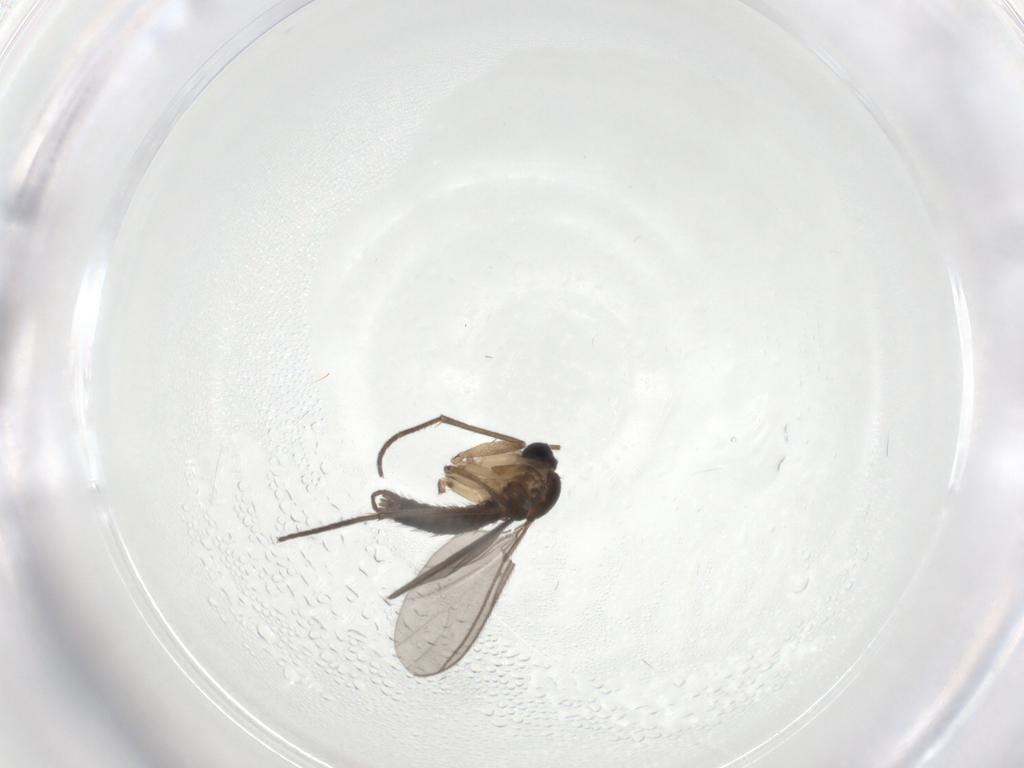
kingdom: Animalia
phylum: Arthropoda
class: Insecta
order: Diptera
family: Sciaridae
